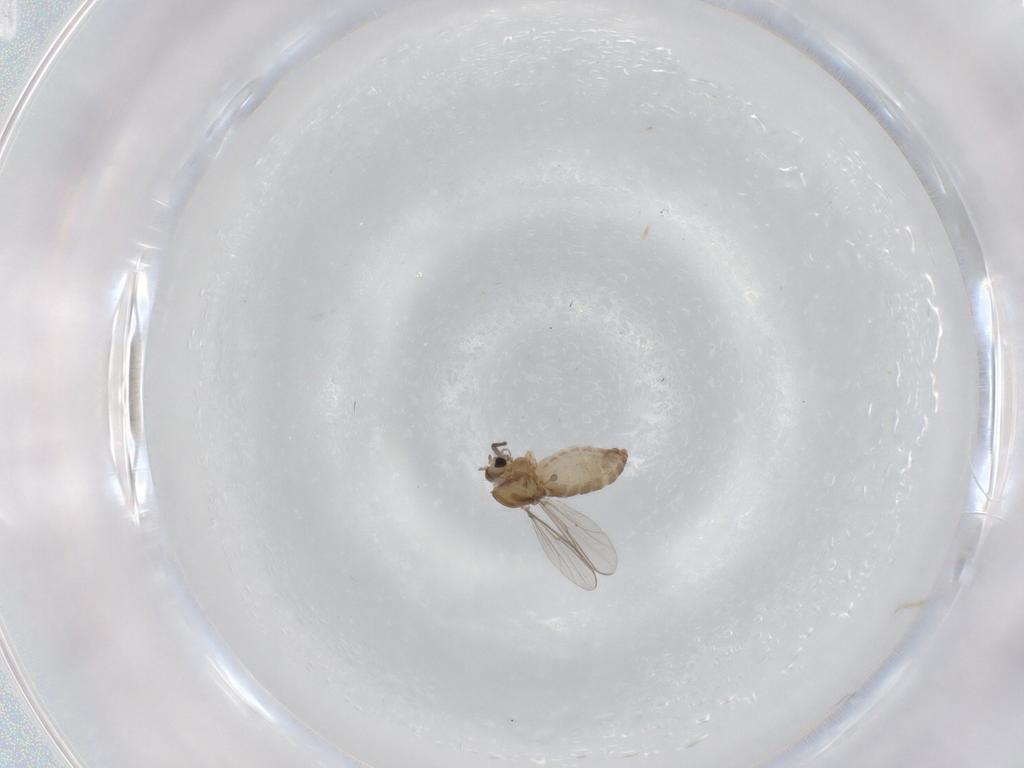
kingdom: Animalia
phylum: Arthropoda
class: Insecta
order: Diptera
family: Chironomidae
